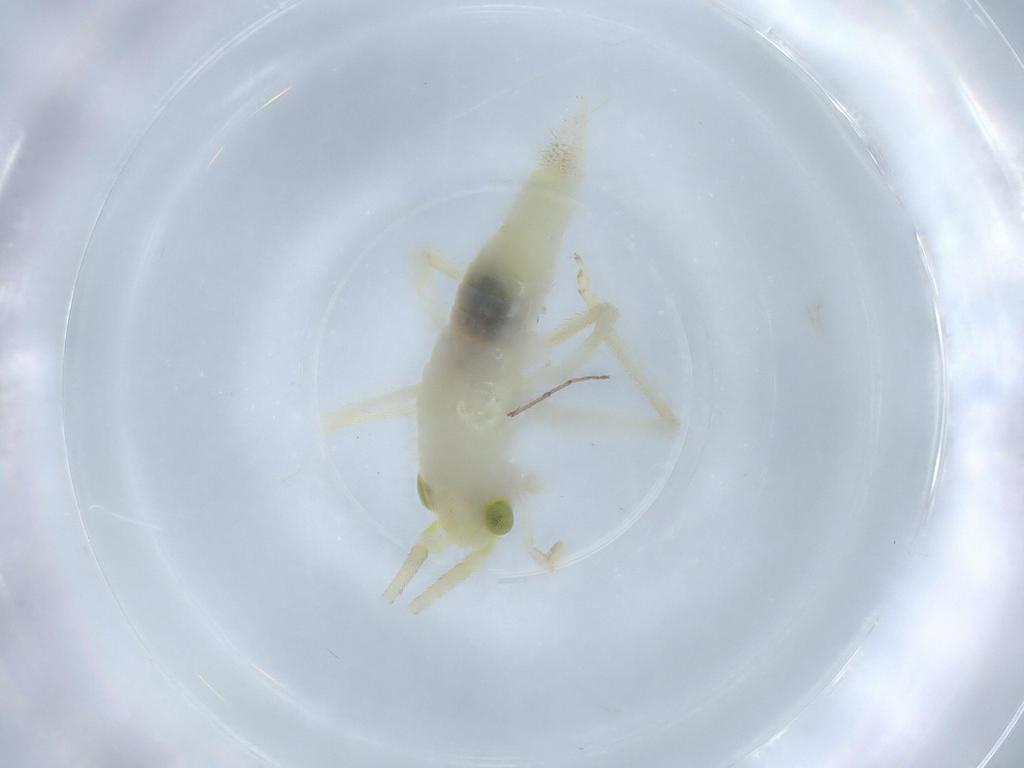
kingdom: Animalia
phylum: Arthropoda
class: Insecta
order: Orthoptera
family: Trigonidiidae
